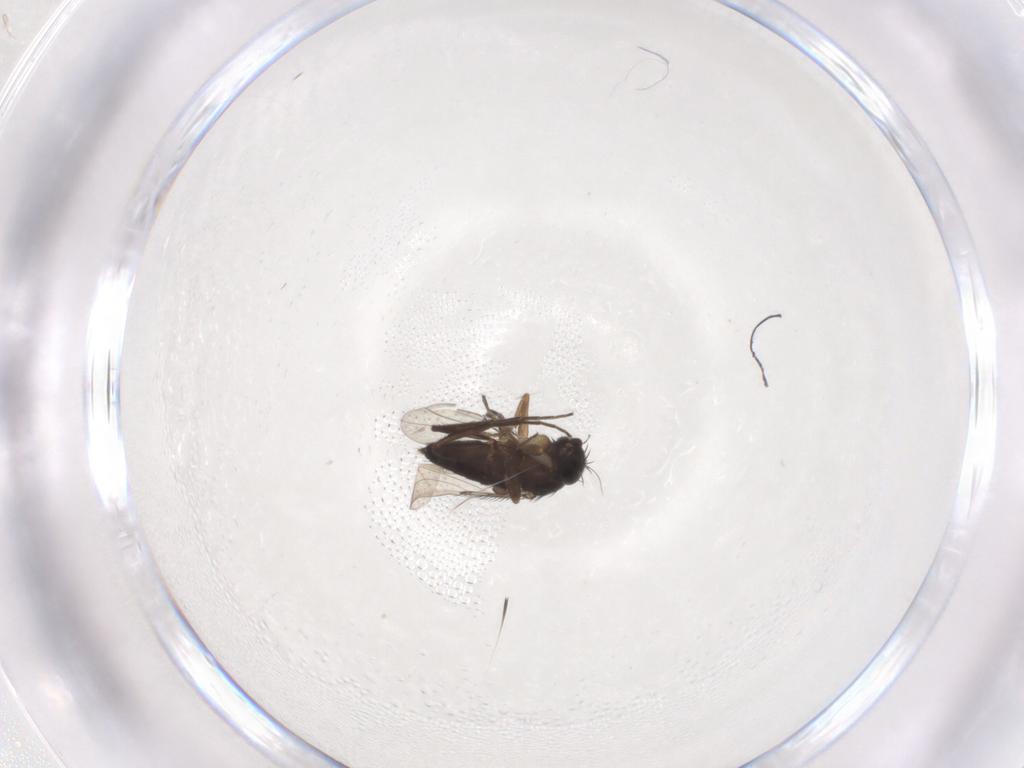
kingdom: Animalia
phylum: Arthropoda
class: Insecta
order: Diptera
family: Phoridae
